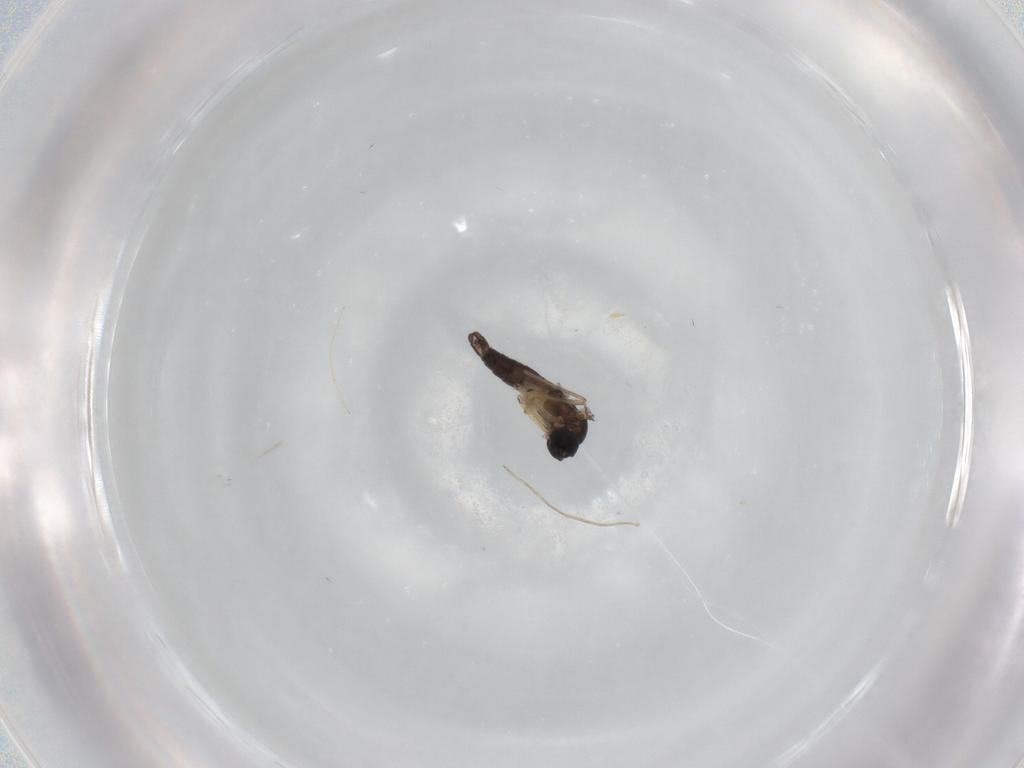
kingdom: Animalia
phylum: Arthropoda
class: Insecta
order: Diptera
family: Sciaridae
